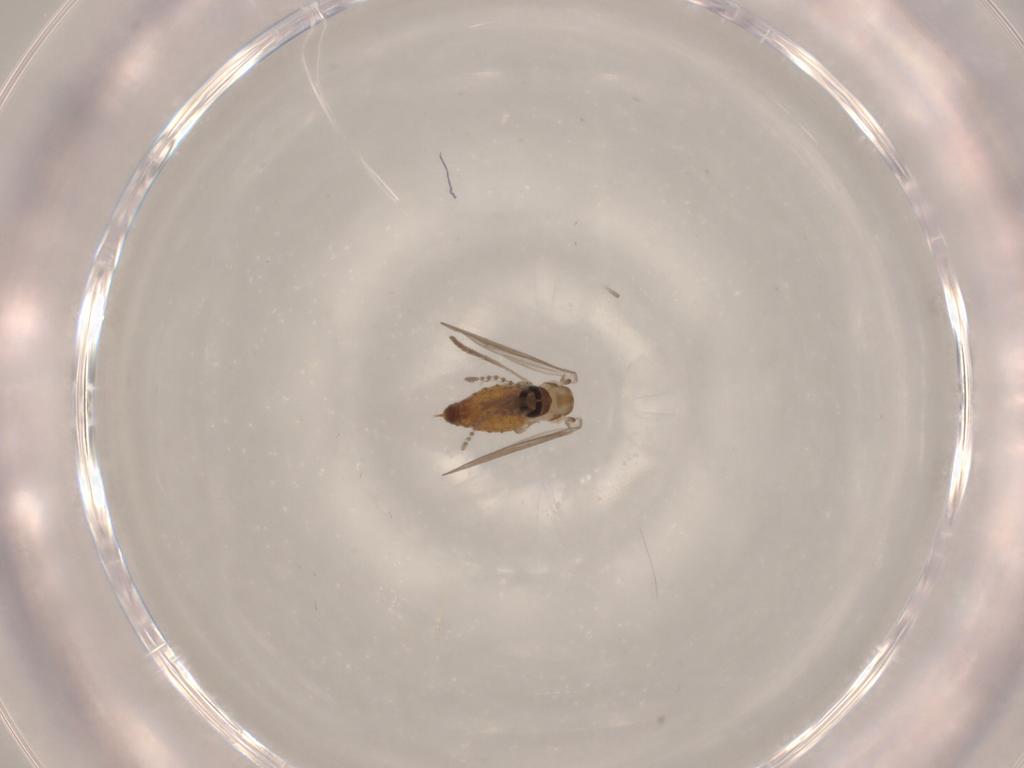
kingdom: Animalia
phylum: Arthropoda
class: Insecta
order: Diptera
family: Psychodidae
